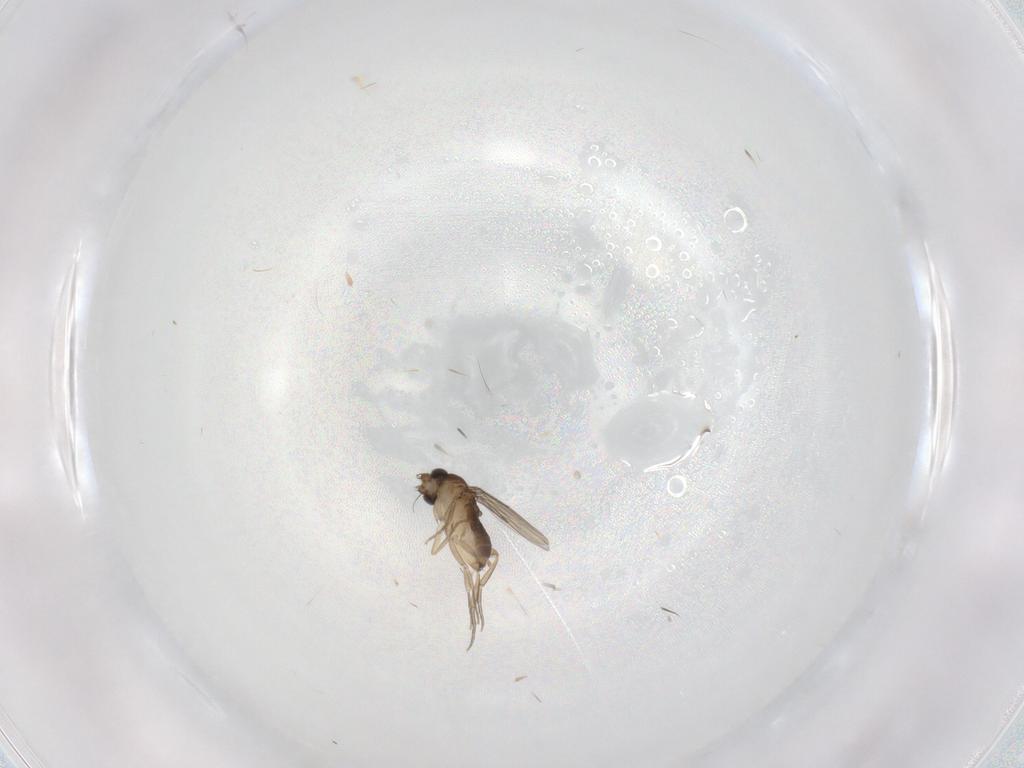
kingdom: Animalia
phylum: Arthropoda
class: Insecta
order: Diptera
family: Phoridae
